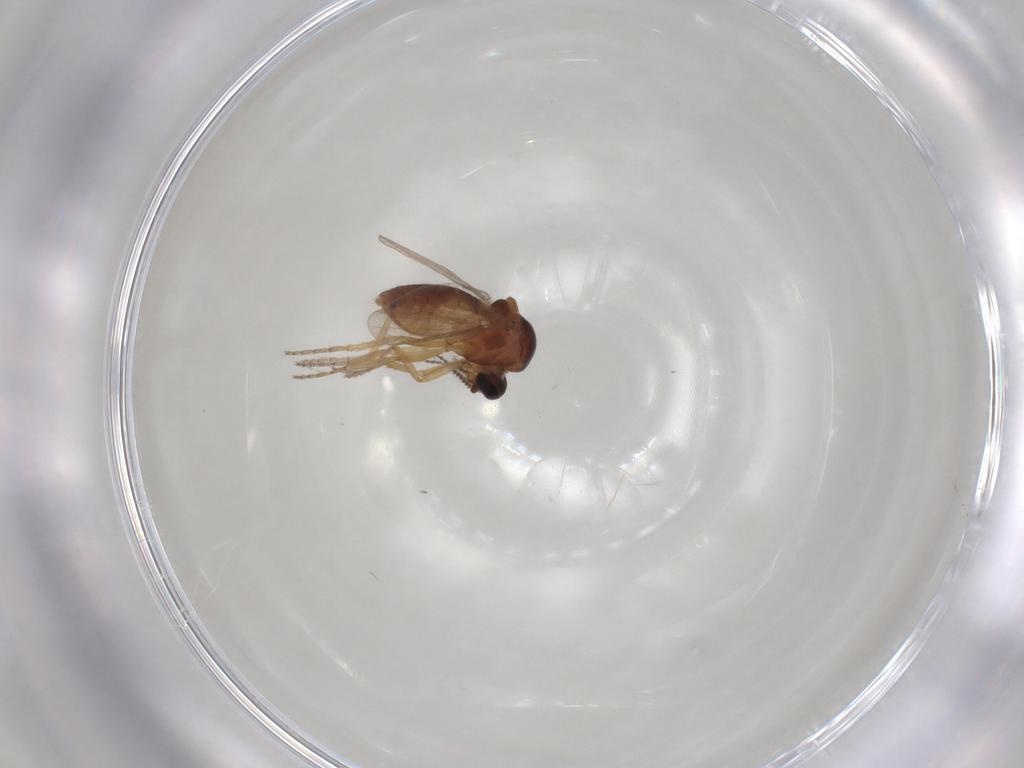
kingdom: Animalia
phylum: Arthropoda
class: Insecta
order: Diptera
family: Ceratopogonidae
